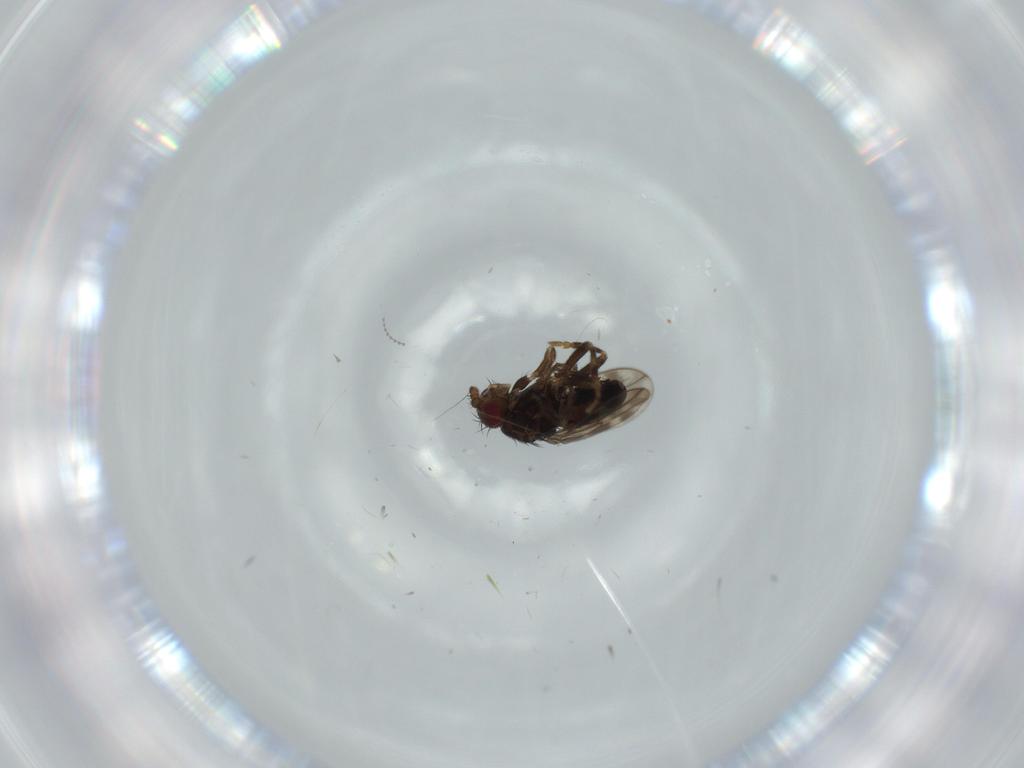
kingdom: Animalia
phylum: Arthropoda
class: Insecta
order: Diptera
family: Sphaeroceridae
